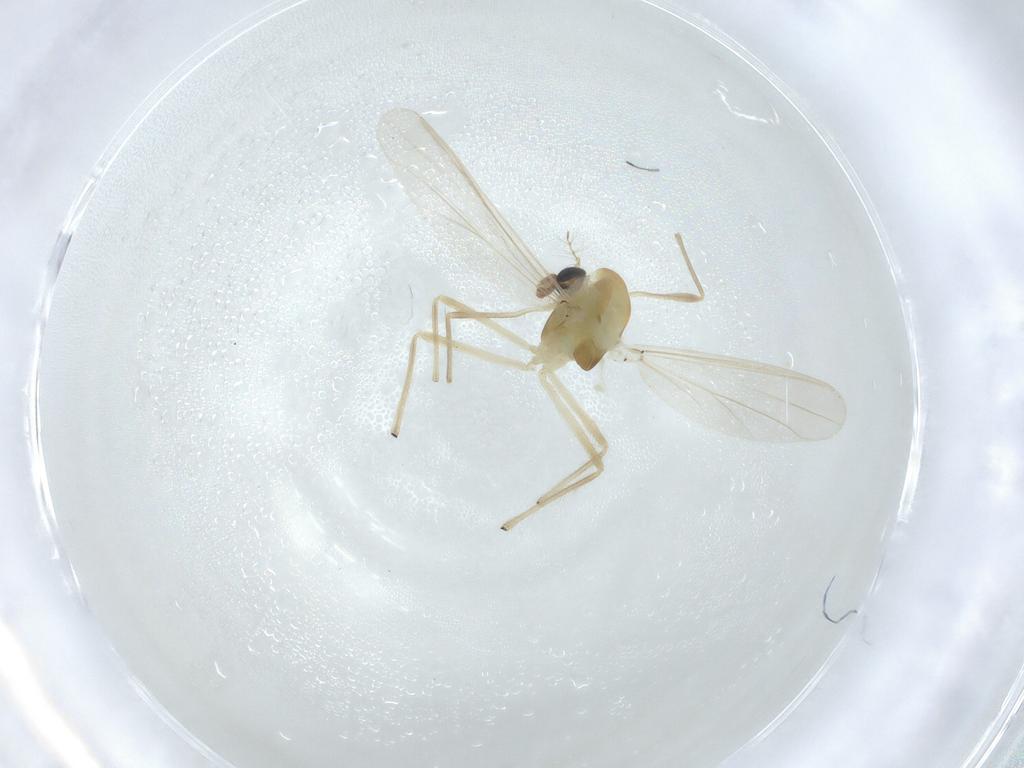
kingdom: Animalia
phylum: Arthropoda
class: Insecta
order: Diptera
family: Chironomidae
